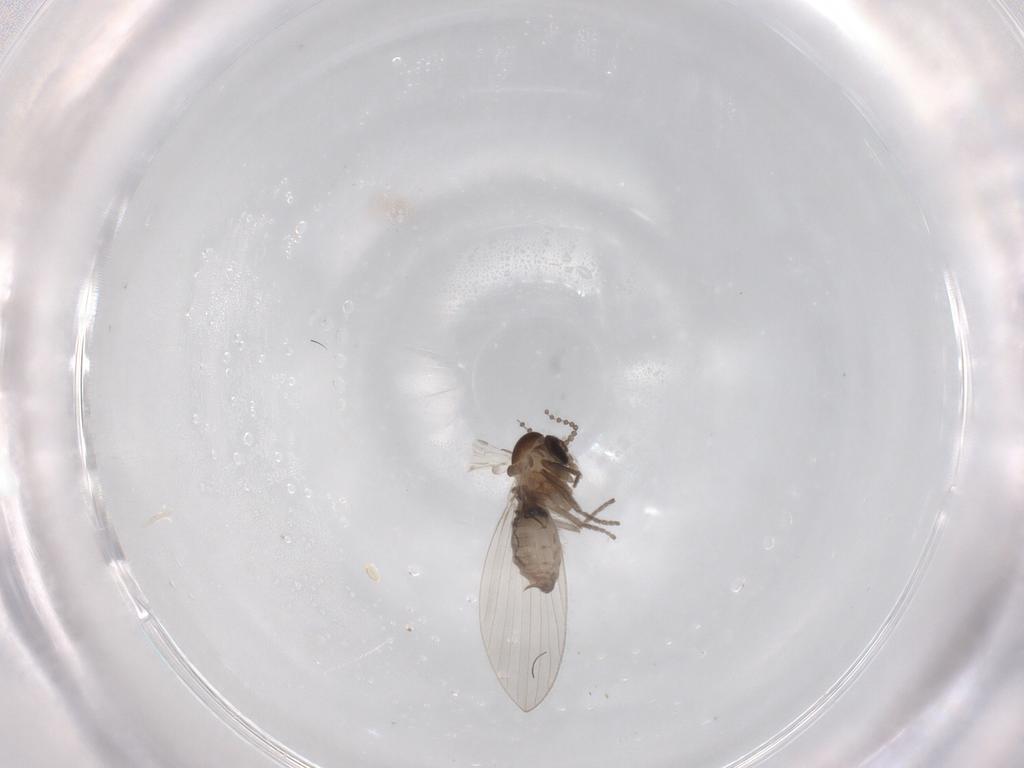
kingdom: Animalia
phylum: Arthropoda
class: Insecta
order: Diptera
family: Psychodidae
